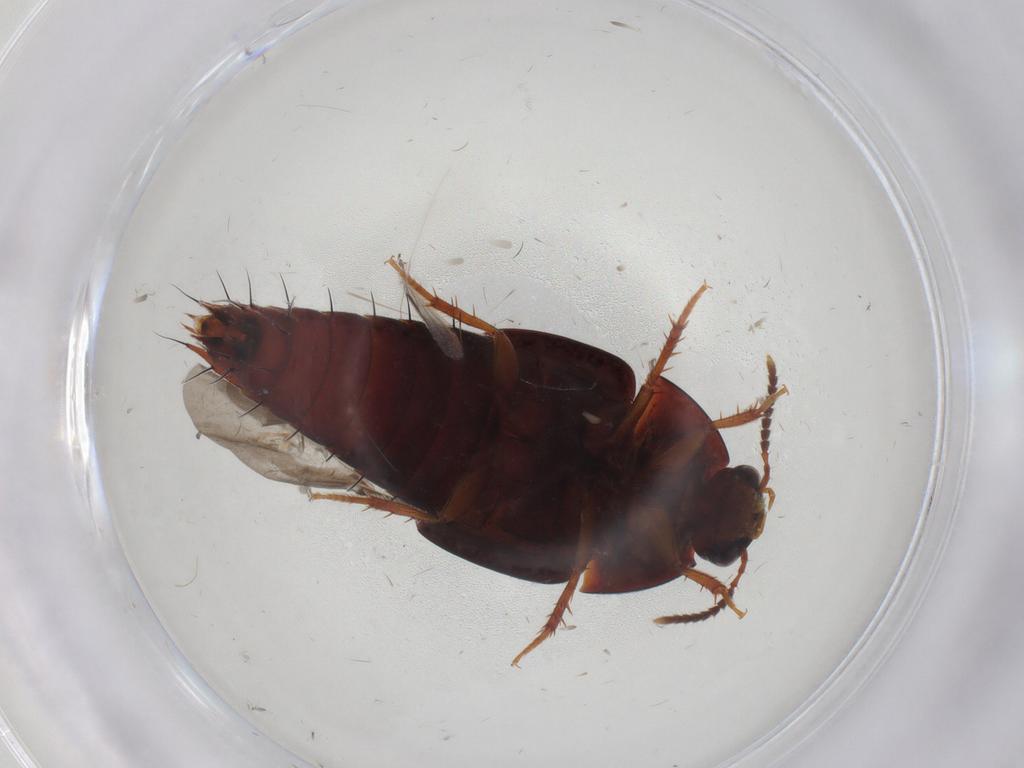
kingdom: Animalia
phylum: Arthropoda
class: Insecta
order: Coleoptera
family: Staphylinidae
